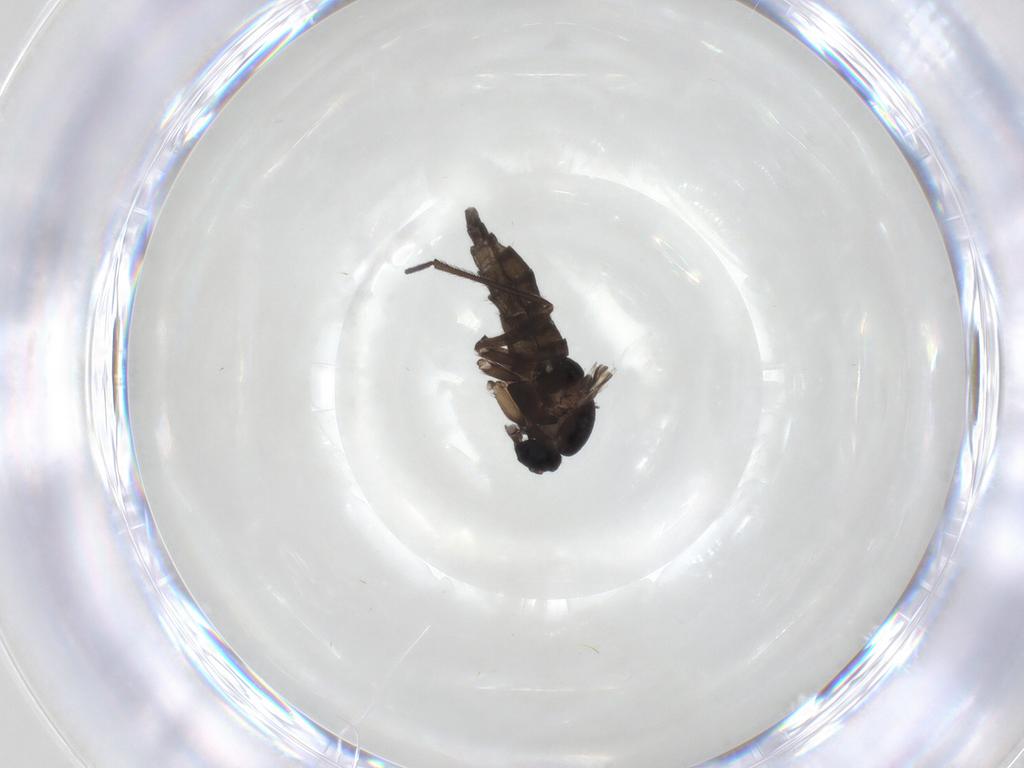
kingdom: Animalia
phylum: Arthropoda
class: Insecta
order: Diptera
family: Sciaridae
